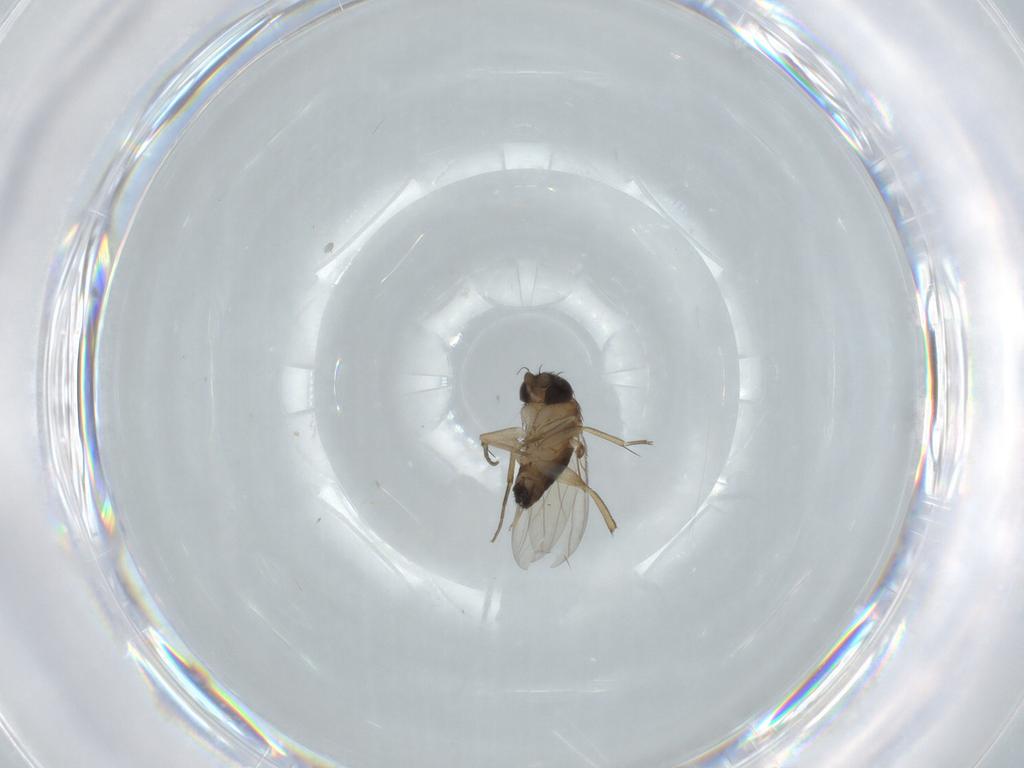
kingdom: Animalia
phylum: Arthropoda
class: Insecta
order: Diptera
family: Phoridae
